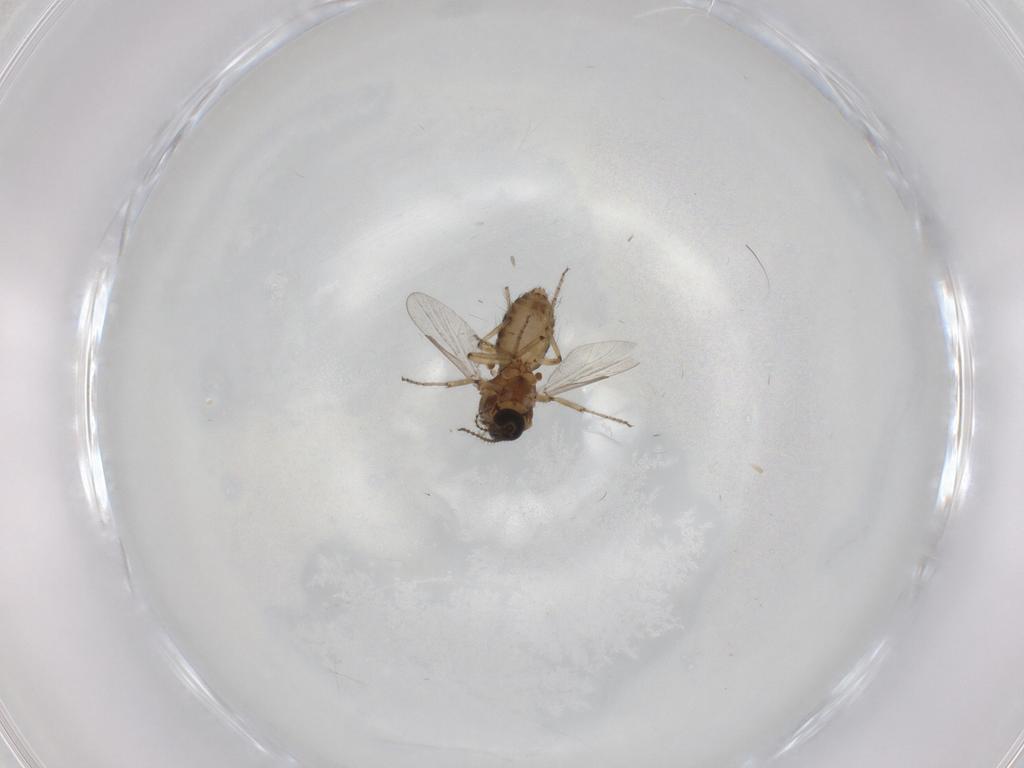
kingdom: Animalia
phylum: Arthropoda
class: Insecta
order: Diptera
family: Ceratopogonidae
